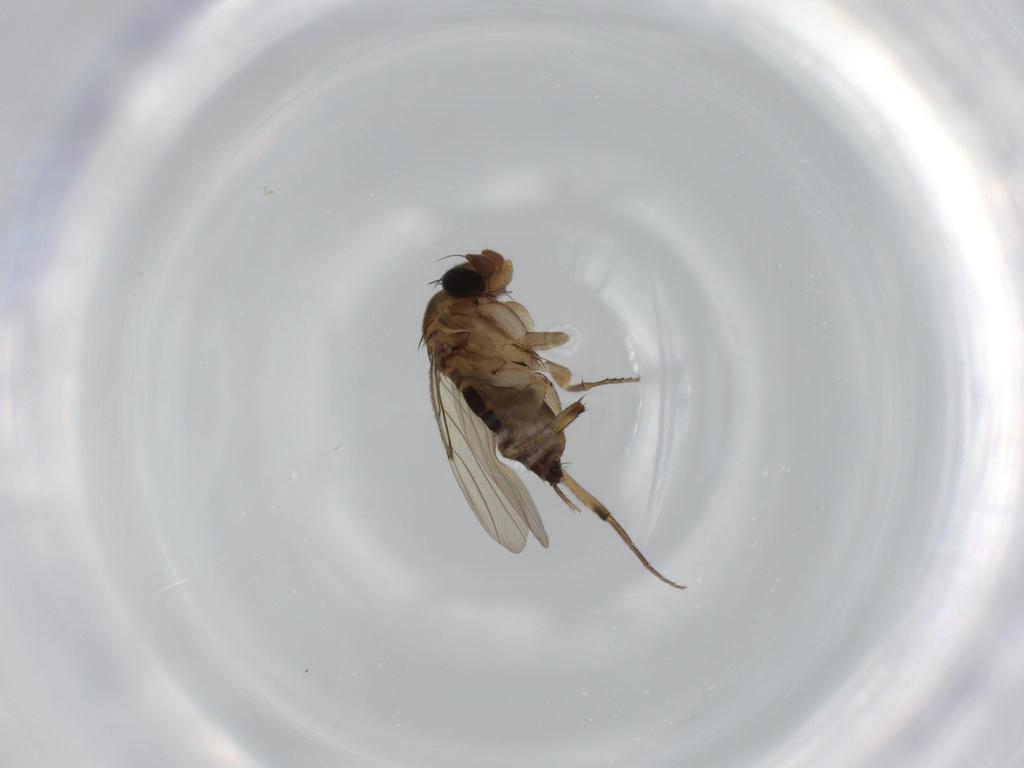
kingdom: Animalia
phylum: Arthropoda
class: Insecta
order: Diptera
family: Phoridae
